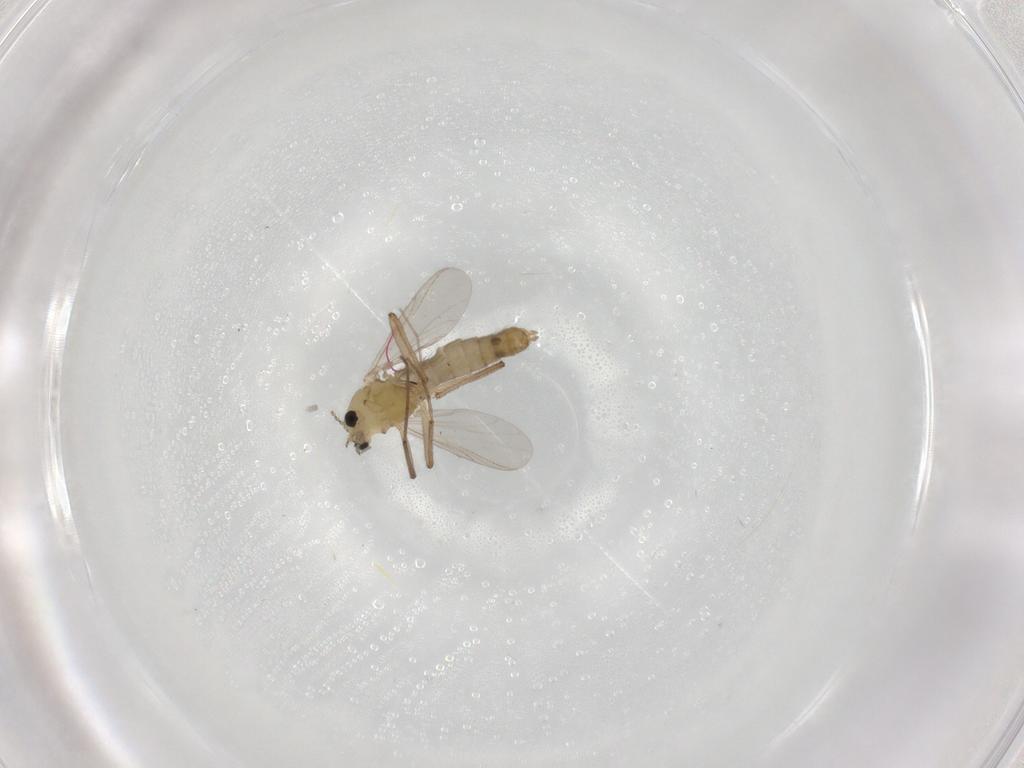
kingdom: Animalia
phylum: Arthropoda
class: Insecta
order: Diptera
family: Chironomidae
